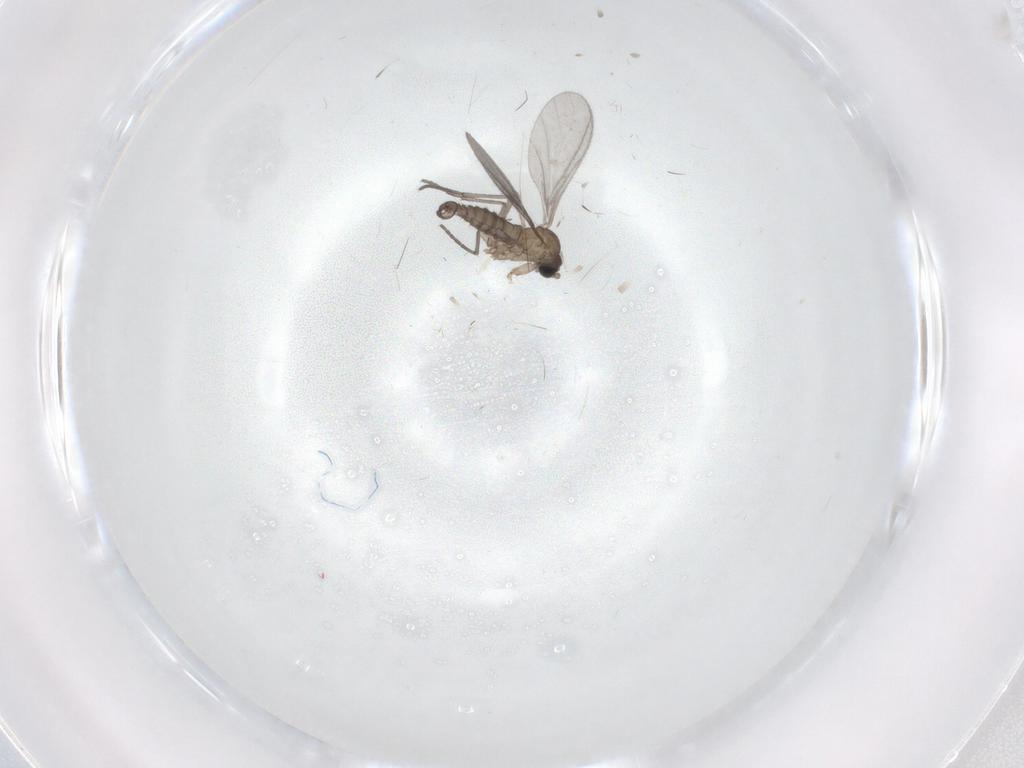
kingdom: Animalia
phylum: Arthropoda
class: Insecta
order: Diptera
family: Sciaridae
